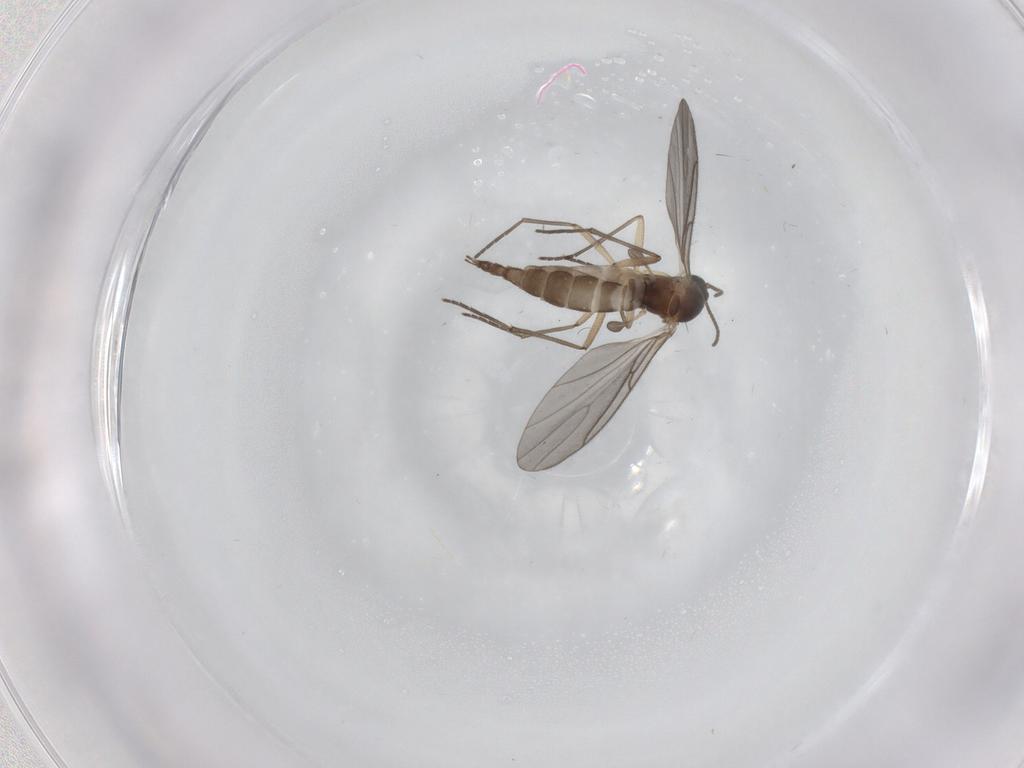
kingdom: Animalia
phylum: Arthropoda
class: Insecta
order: Diptera
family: Sciaridae
